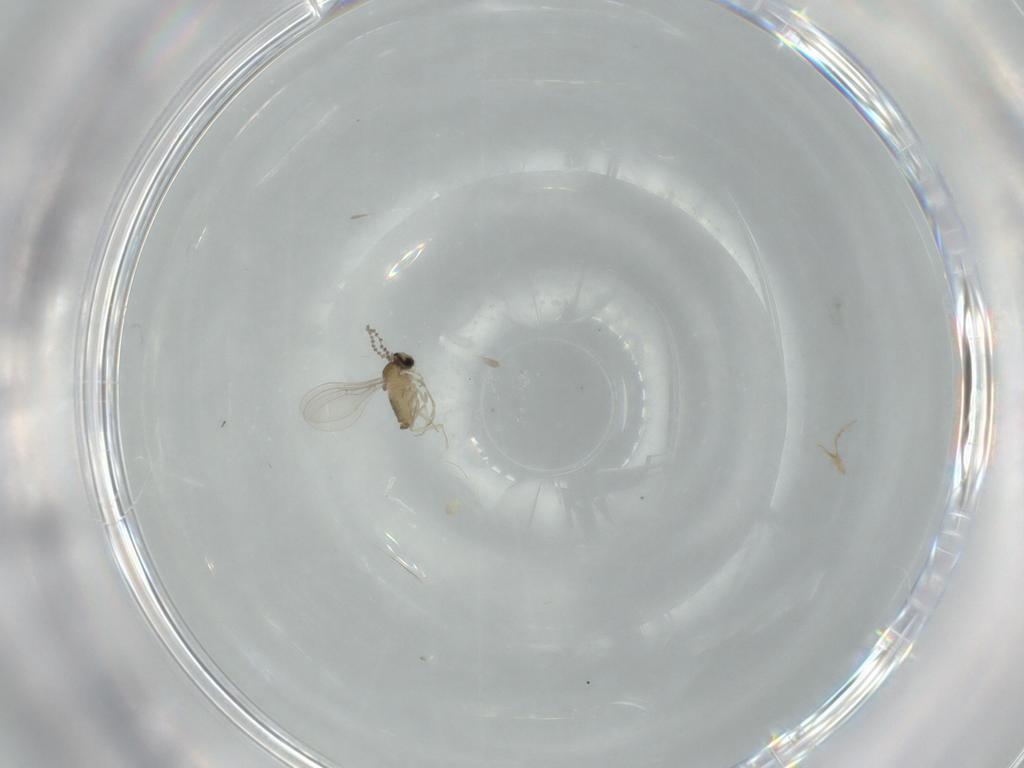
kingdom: Animalia
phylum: Arthropoda
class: Insecta
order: Diptera
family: Cecidomyiidae
